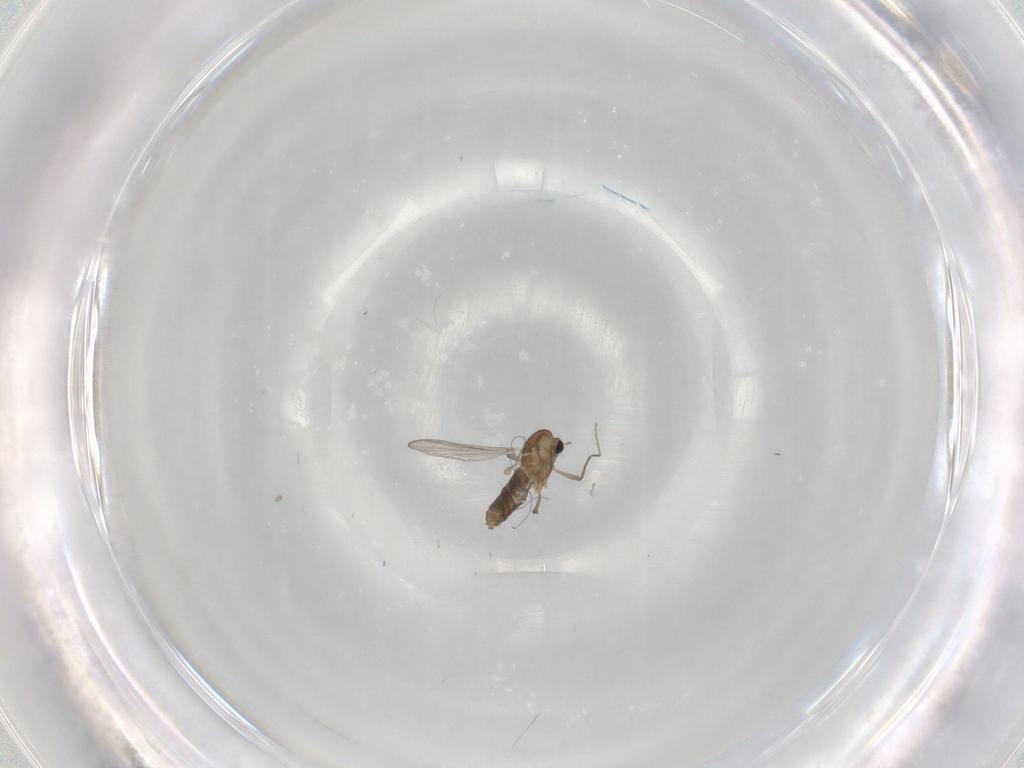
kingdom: Animalia
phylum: Arthropoda
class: Insecta
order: Diptera
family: Chironomidae
